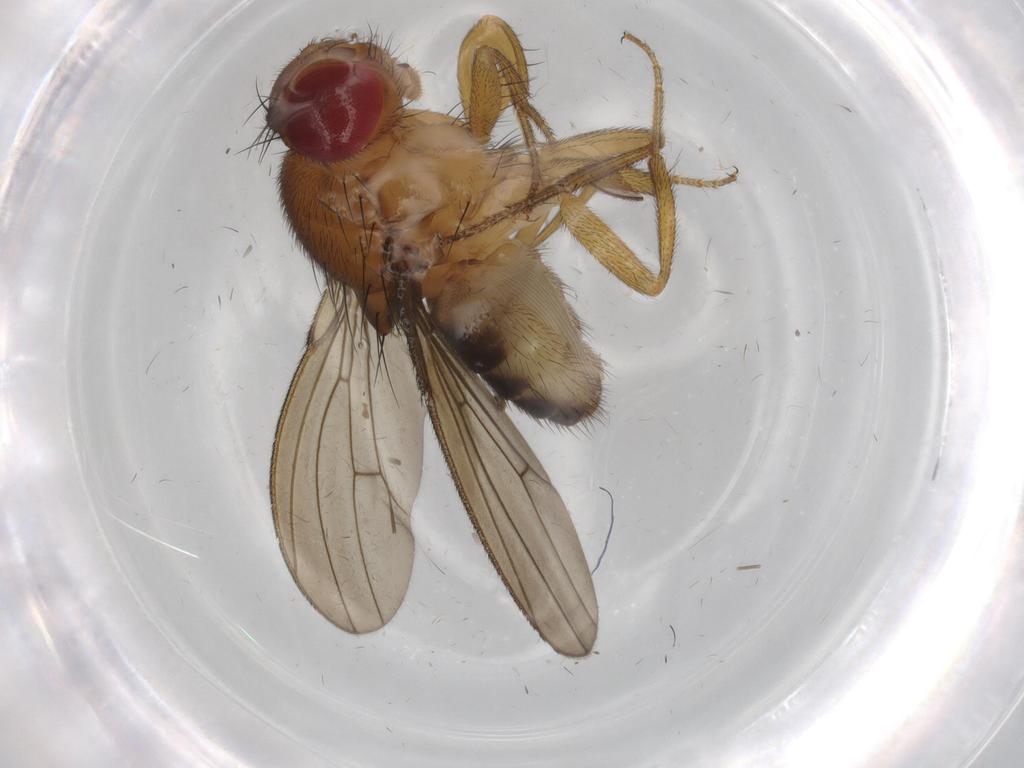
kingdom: Animalia
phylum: Arthropoda
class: Insecta
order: Diptera
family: Drosophilidae
